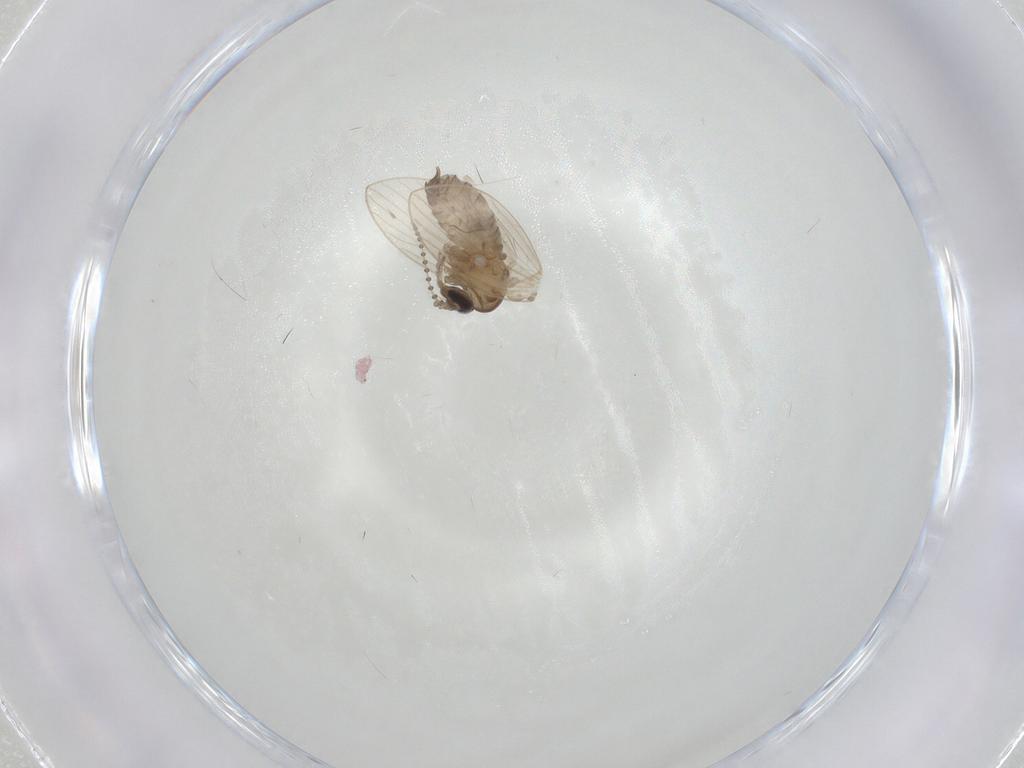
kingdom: Animalia
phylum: Arthropoda
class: Insecta
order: Diptera
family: Psychodidae
